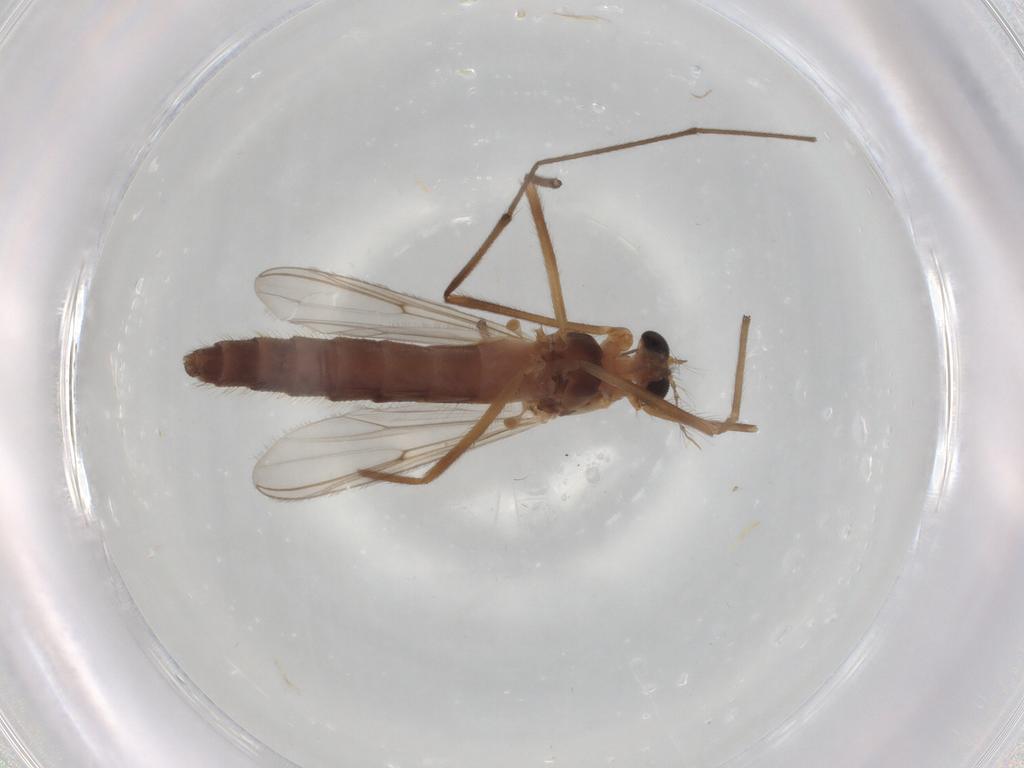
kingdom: Animalia
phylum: Arthropoda
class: Insecta
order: Diptera
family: Chironomidae
